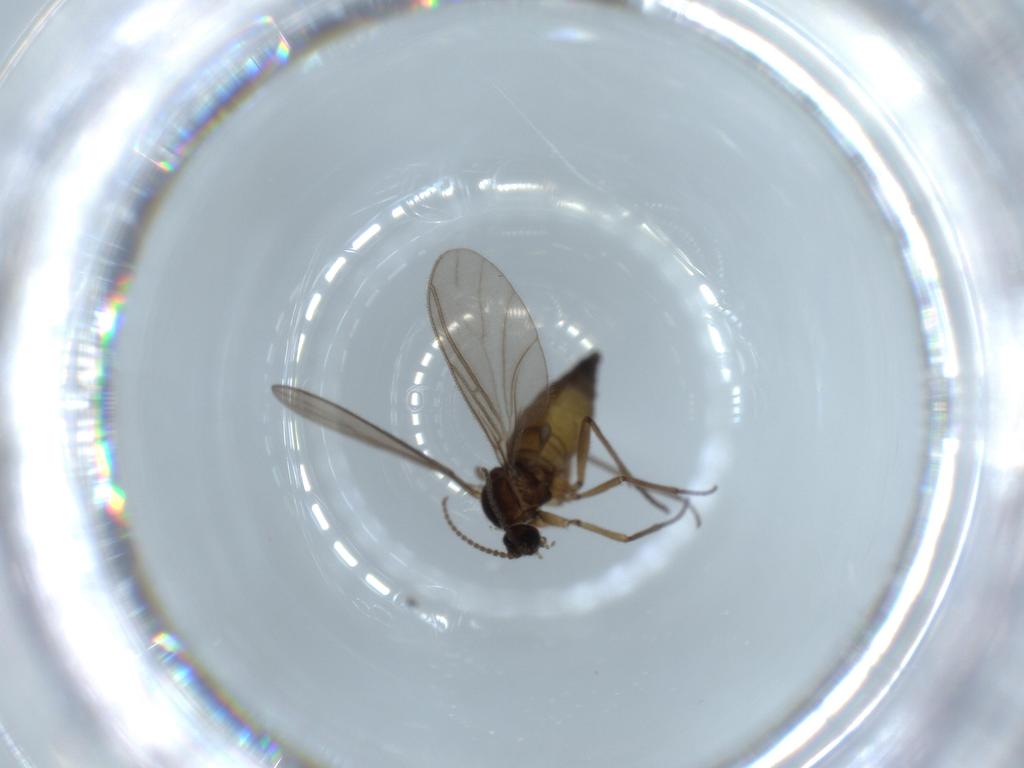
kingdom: Animalia
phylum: Arthropoda
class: Insecta
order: Diptera
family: Sciaridae
